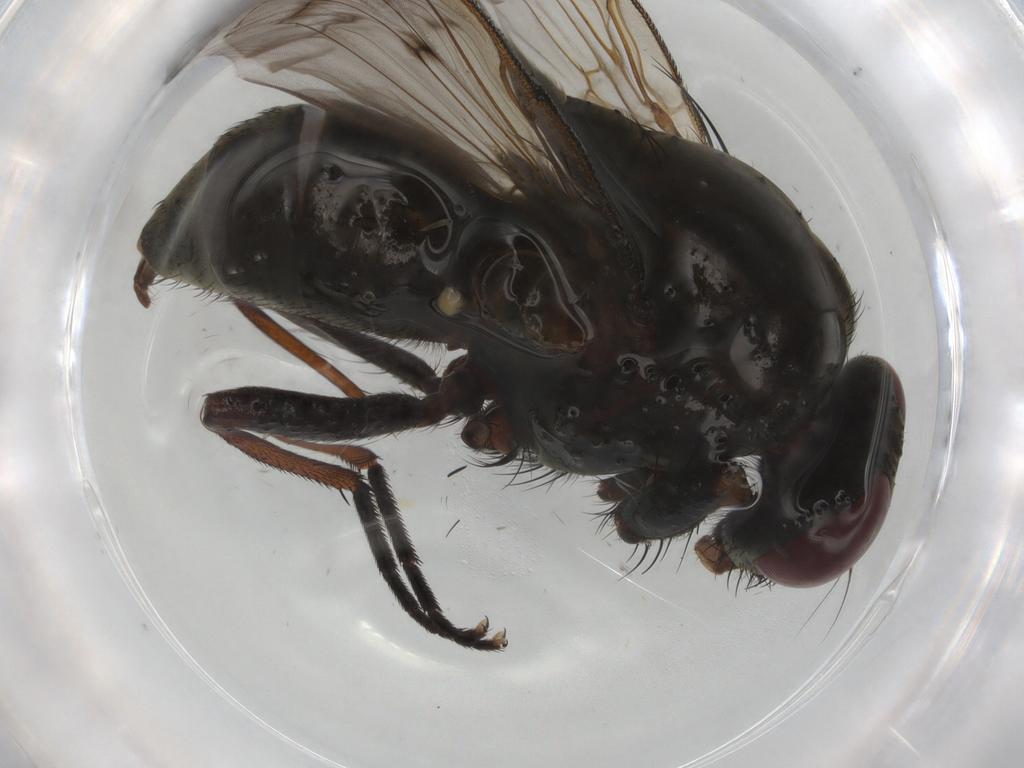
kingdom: Animalia
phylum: Arthropoda
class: Insecta
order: Diptera
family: Muscidae
